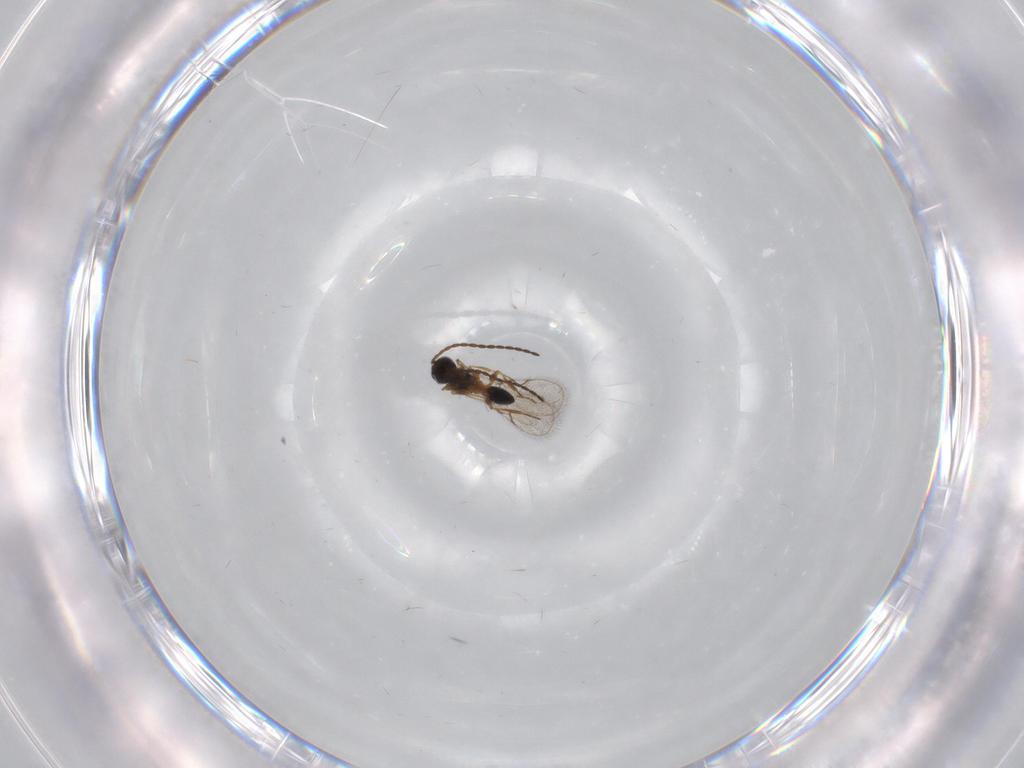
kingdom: Animalia
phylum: Arthropoda
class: Insecta
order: Hymenoptera
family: Figitidae
